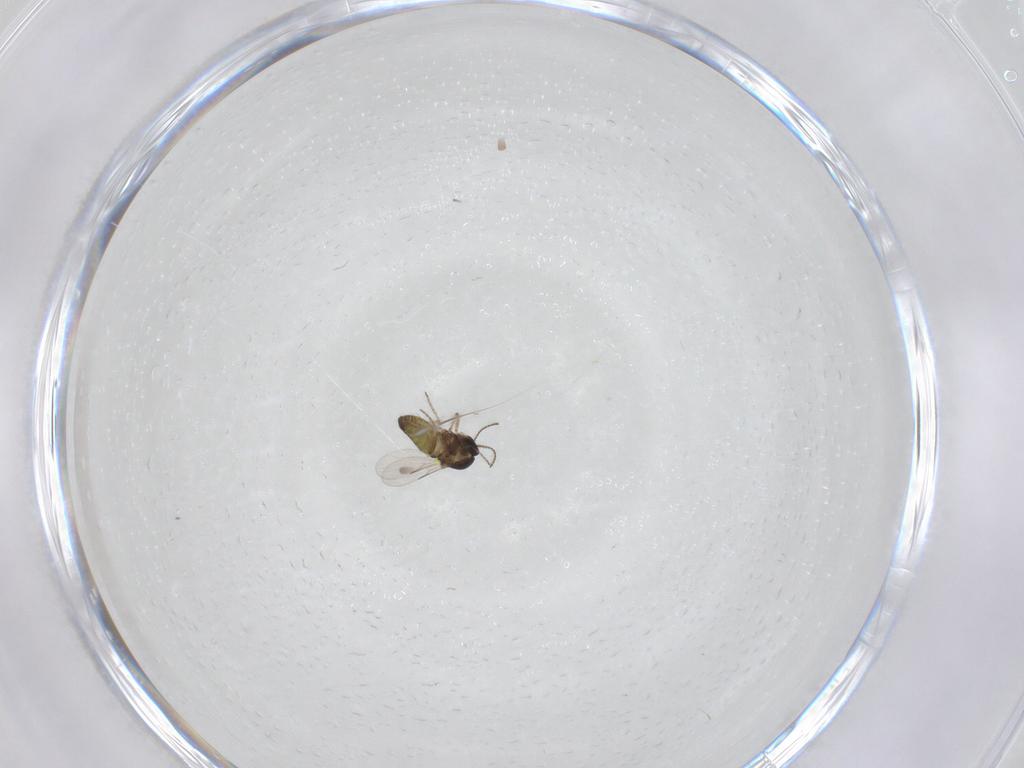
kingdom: Animalia
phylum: Arthropoda
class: Insecta
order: Diptera
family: Ceratopogonidae
